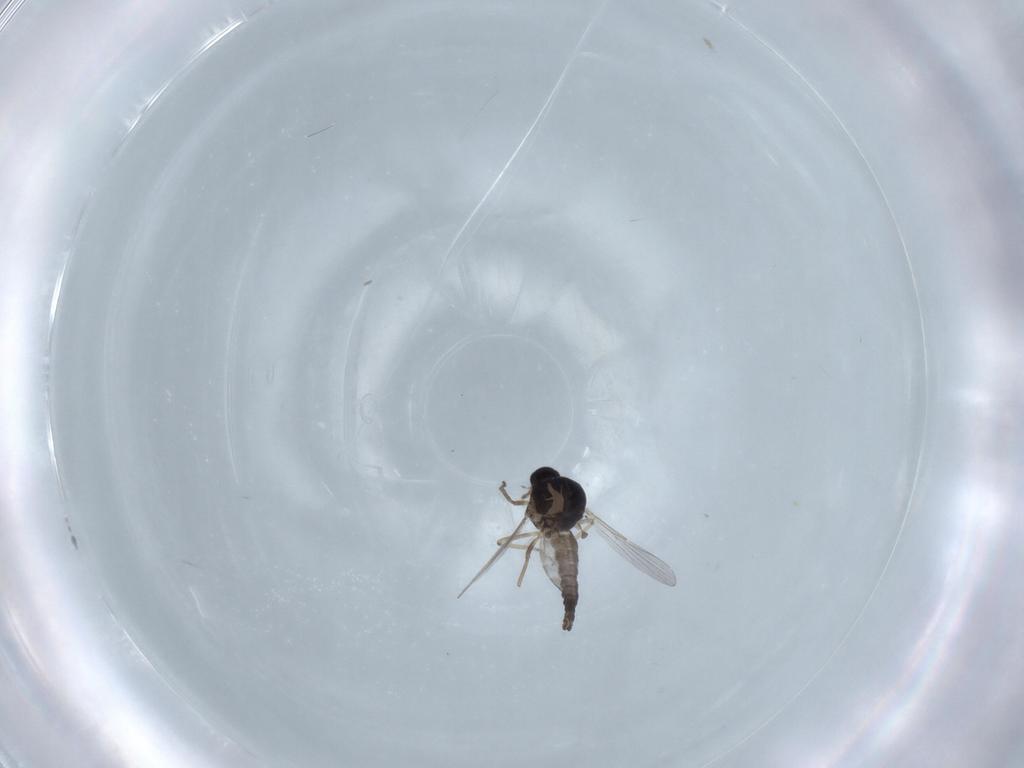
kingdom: Animalia
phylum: Arthropoda
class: Insecta
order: Diptera
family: Ceratopogonidae
